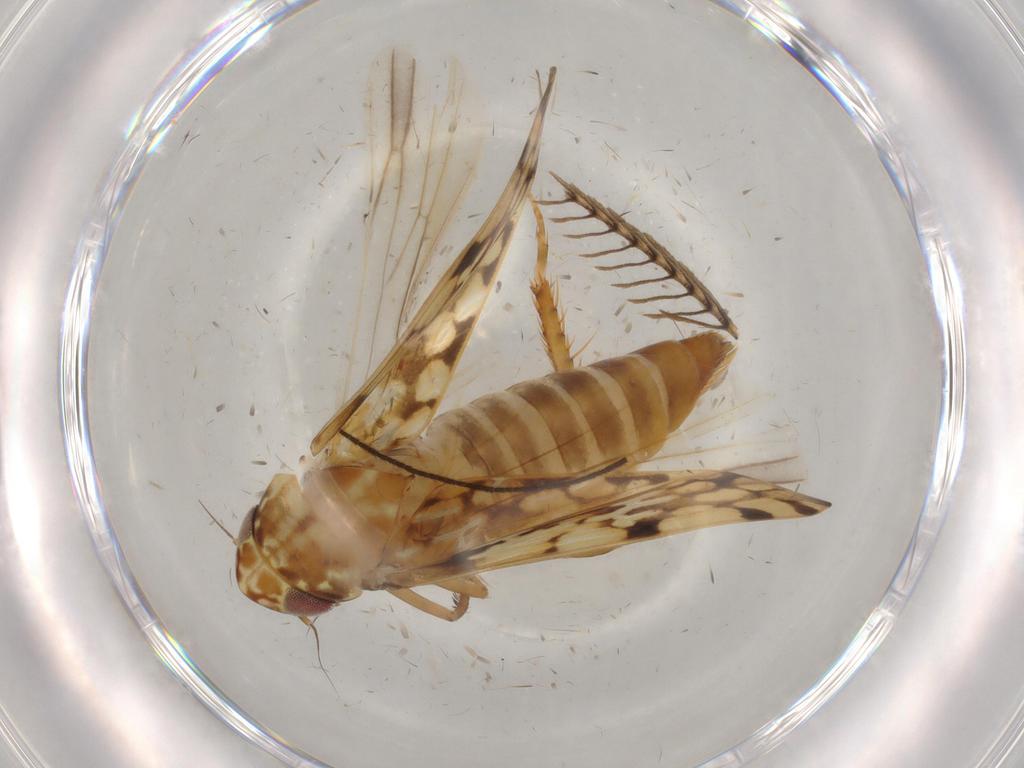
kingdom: Animalia
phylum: Arthropoda
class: Insecta
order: Hemiptera
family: Cicadellidae
